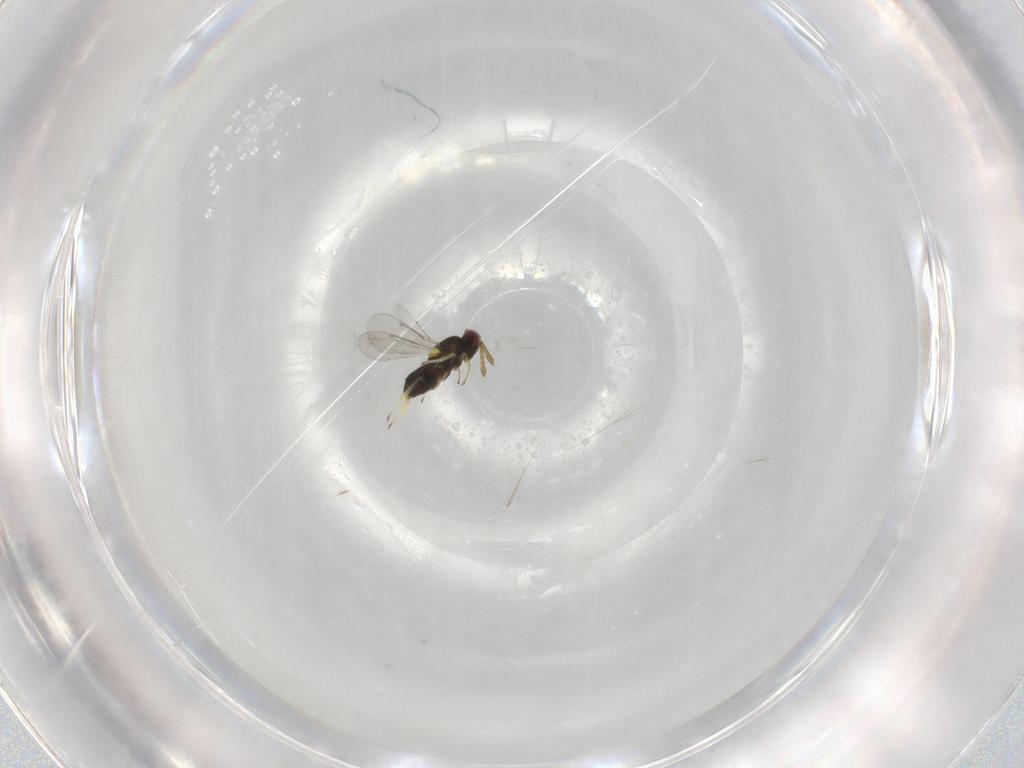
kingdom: Animalia
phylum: Arthropoda
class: Insecta
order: Hymenoptera
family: Aphelinidae
